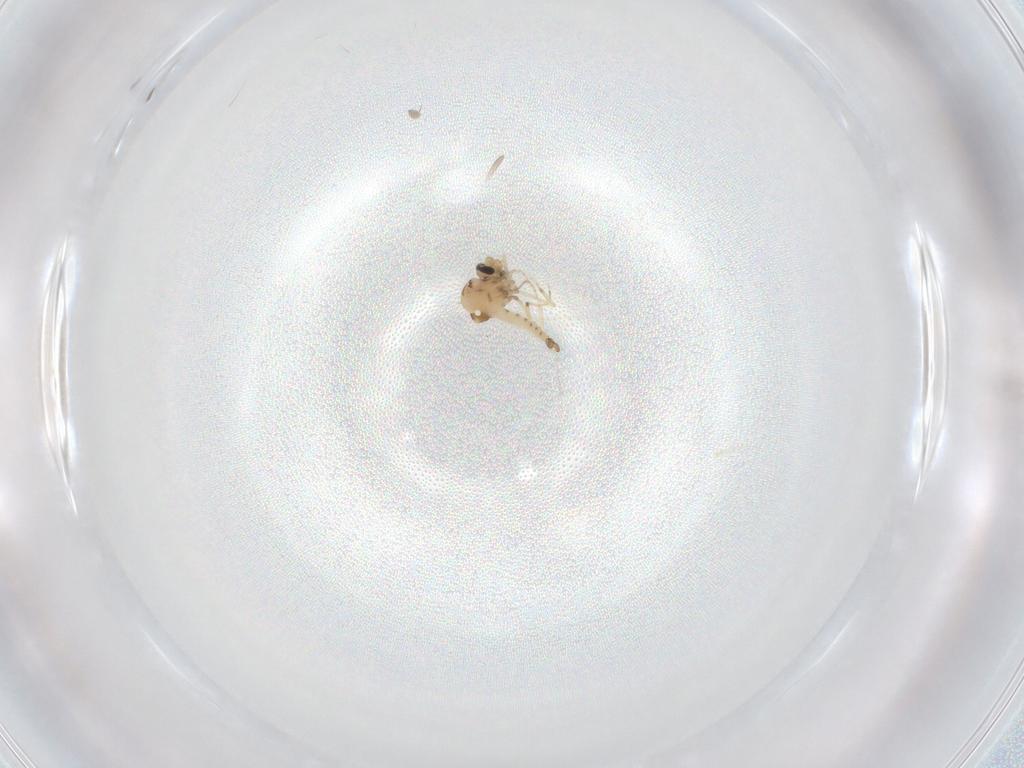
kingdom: Animalia
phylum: Arthropoda
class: Insecta
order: Diptera
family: Ceratopogonidae
